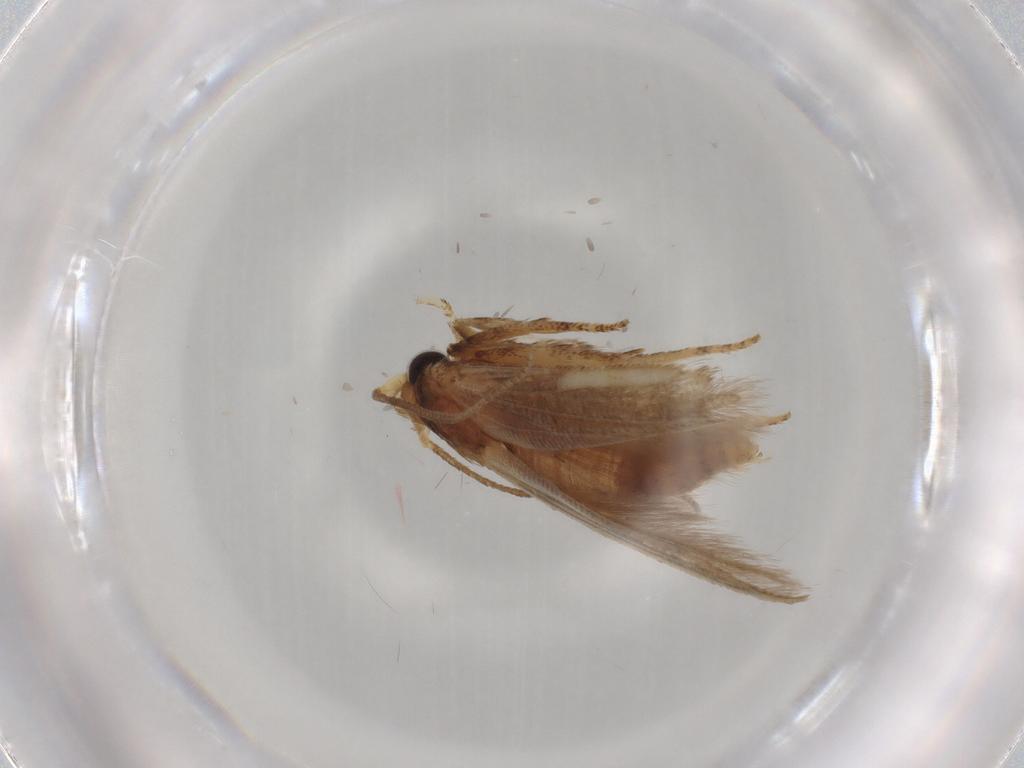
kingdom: Animalia
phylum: Arthropoda
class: Insecta
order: Lepidoptera
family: Blastobasidae
